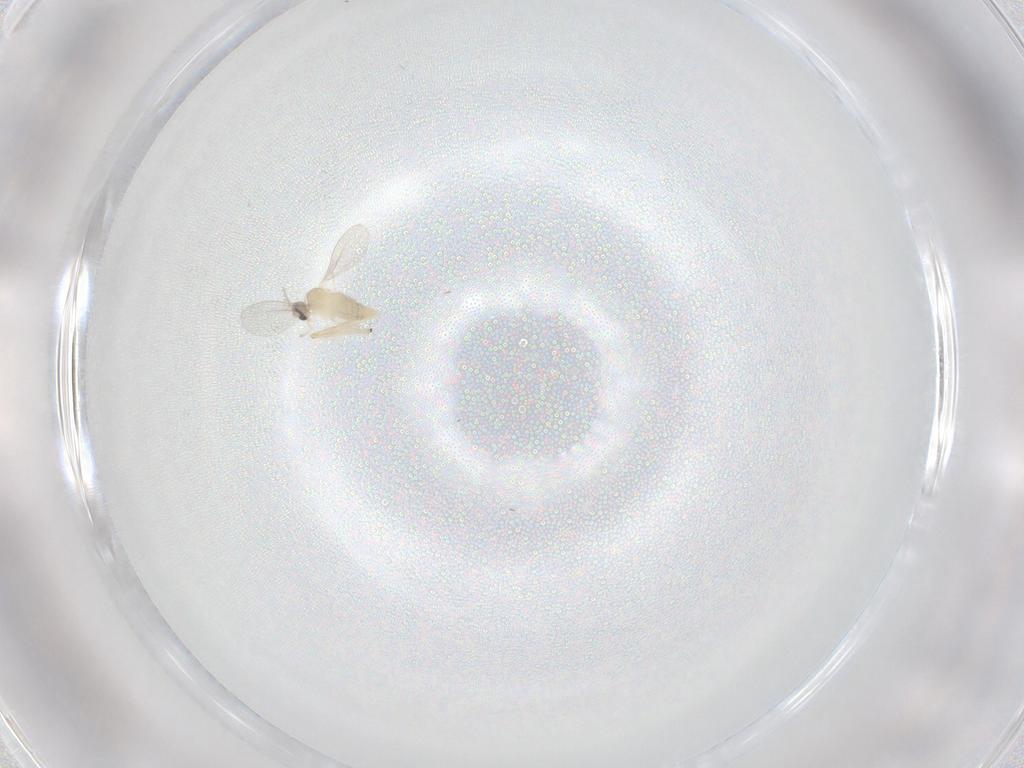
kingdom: Animalia
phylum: Arthropoda
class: Insecta
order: Diptera
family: Cecidomyiidae
